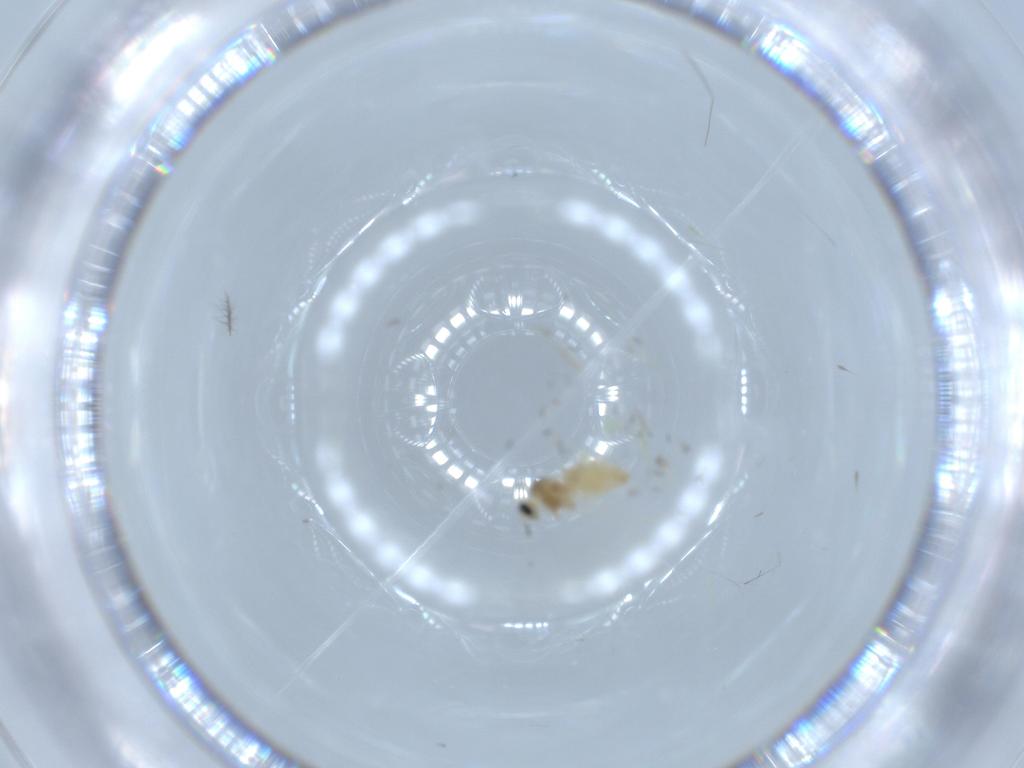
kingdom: Animalia
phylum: Arthropoda
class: Insecta
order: Diptera
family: Cecidomyiidae
